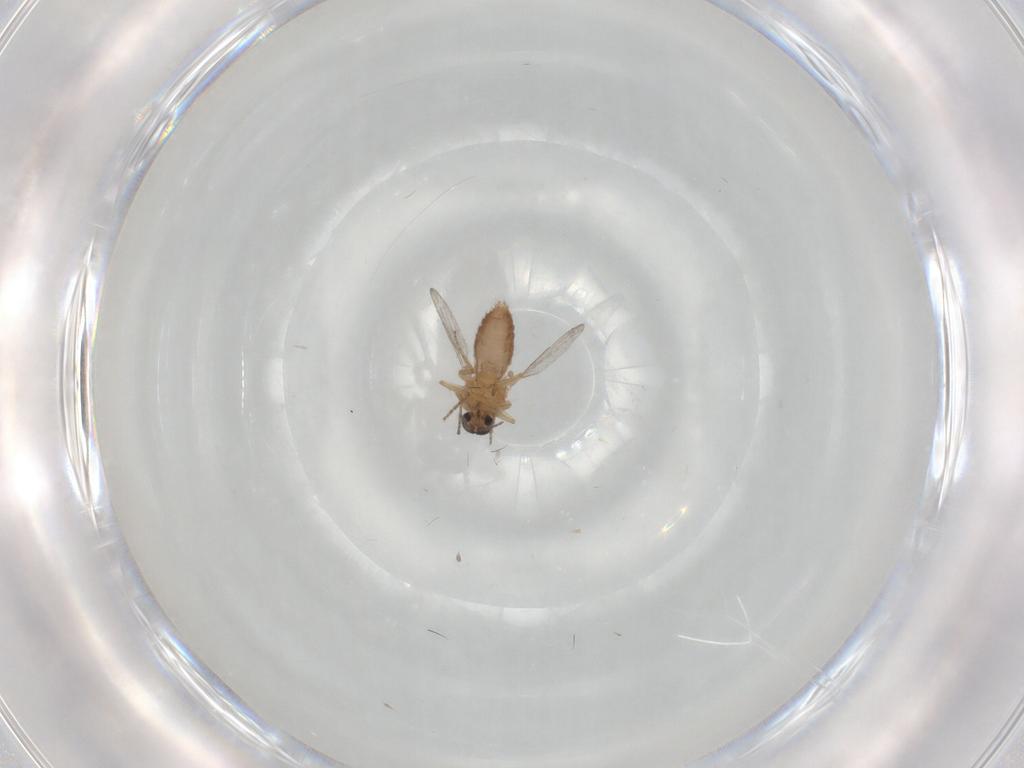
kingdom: Animalia
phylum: Arthropoda
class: Insecta
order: Diptera
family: Ceratopogonidae
